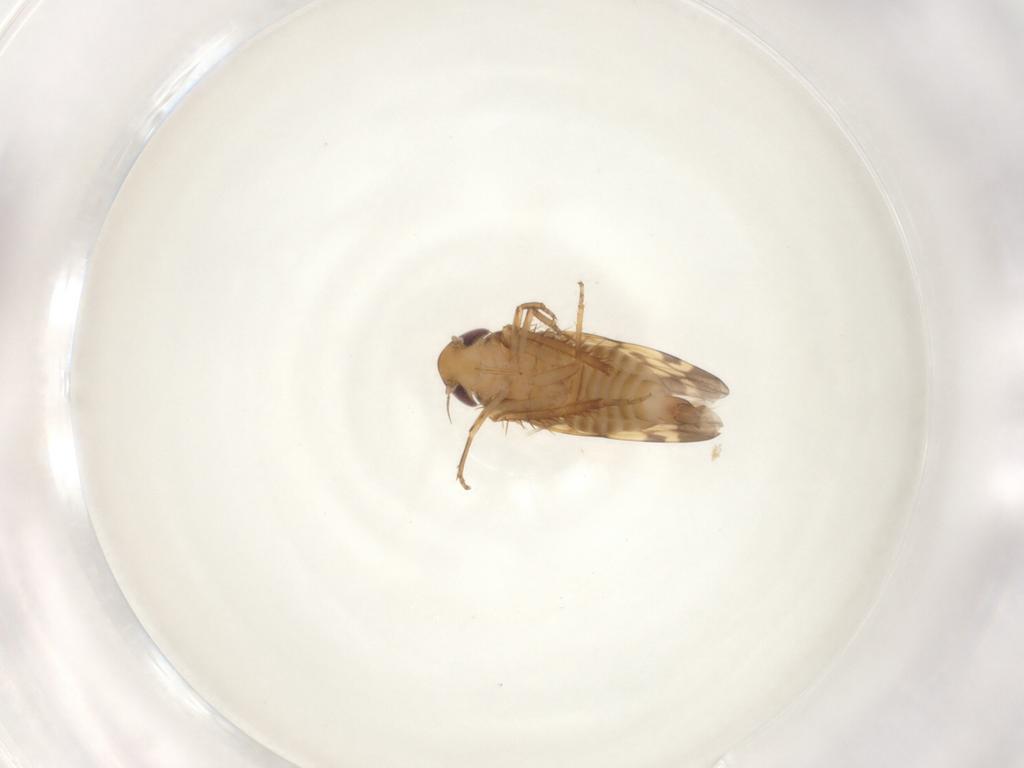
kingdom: Animalia
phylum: Arthropoda
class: Insecta
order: Hemiptera
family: Cicadellidae
